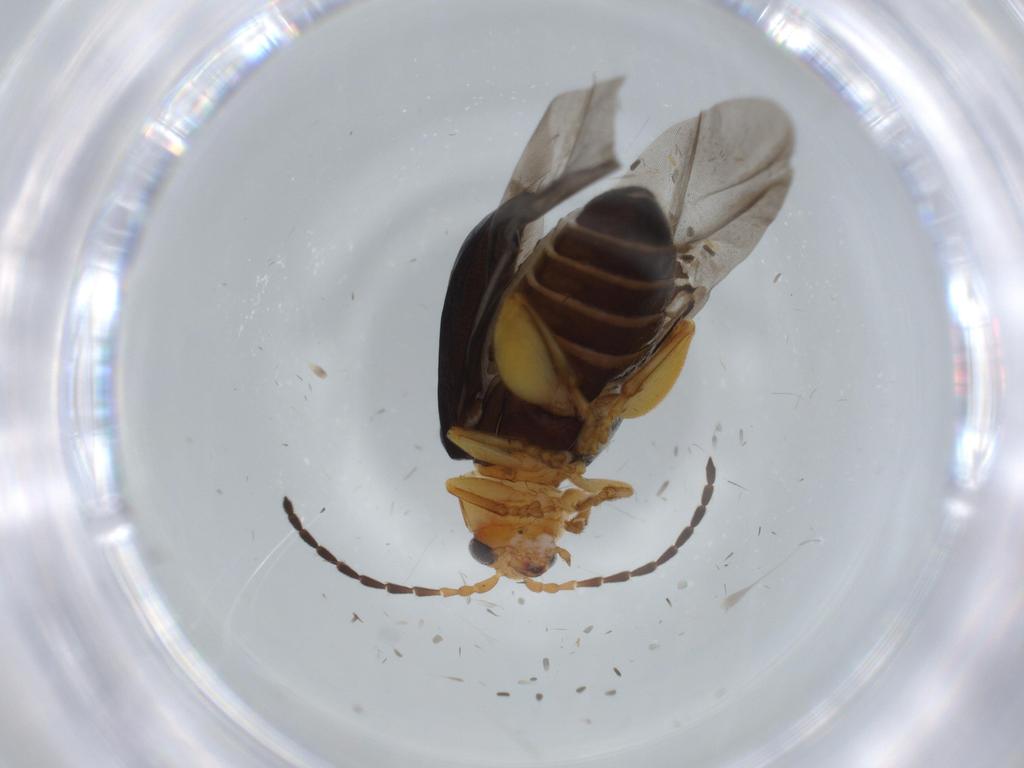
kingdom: Animalia
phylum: Arthropoda
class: Insecta
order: Coleoptera
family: Chrysomelidae
